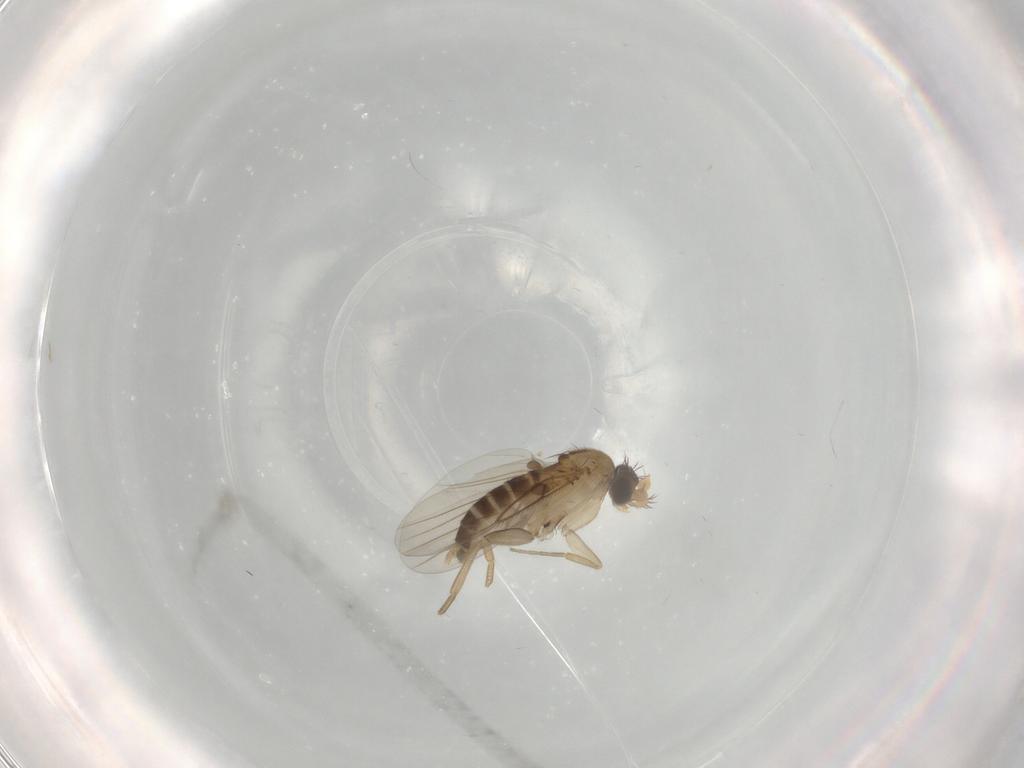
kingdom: Animalia
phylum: Arthropoda
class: Insecta
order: Diptera
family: Phoridae
